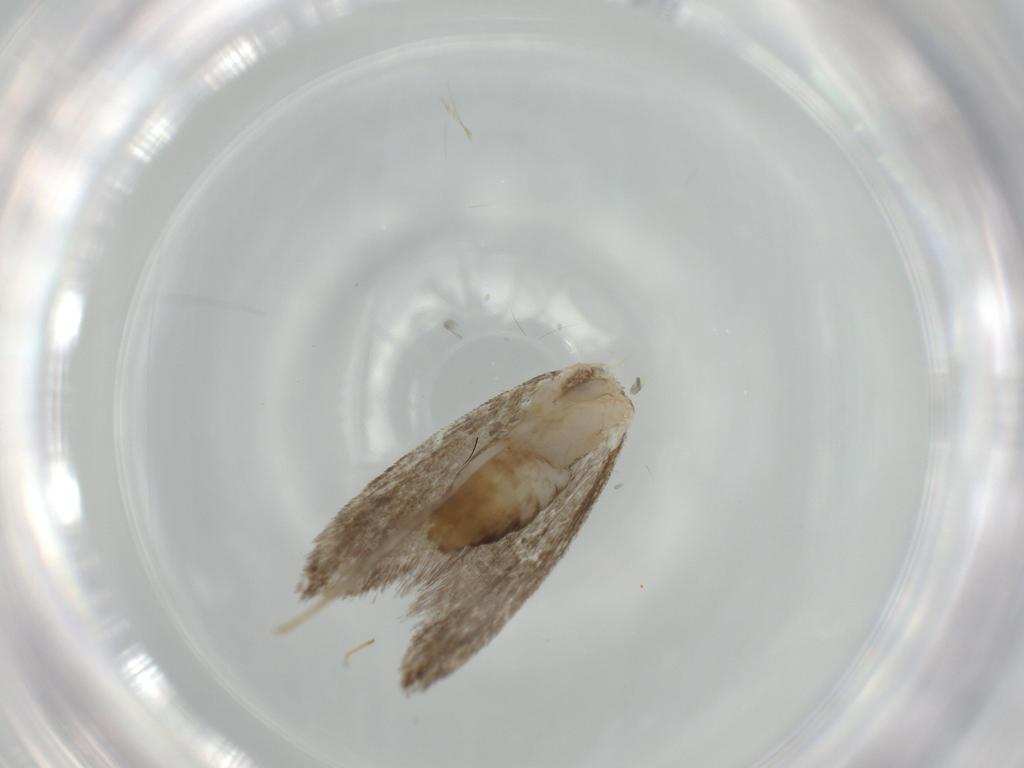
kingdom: Animalia
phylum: Arthropoda
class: Insecta
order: Lepidoptera
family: Tineidae
